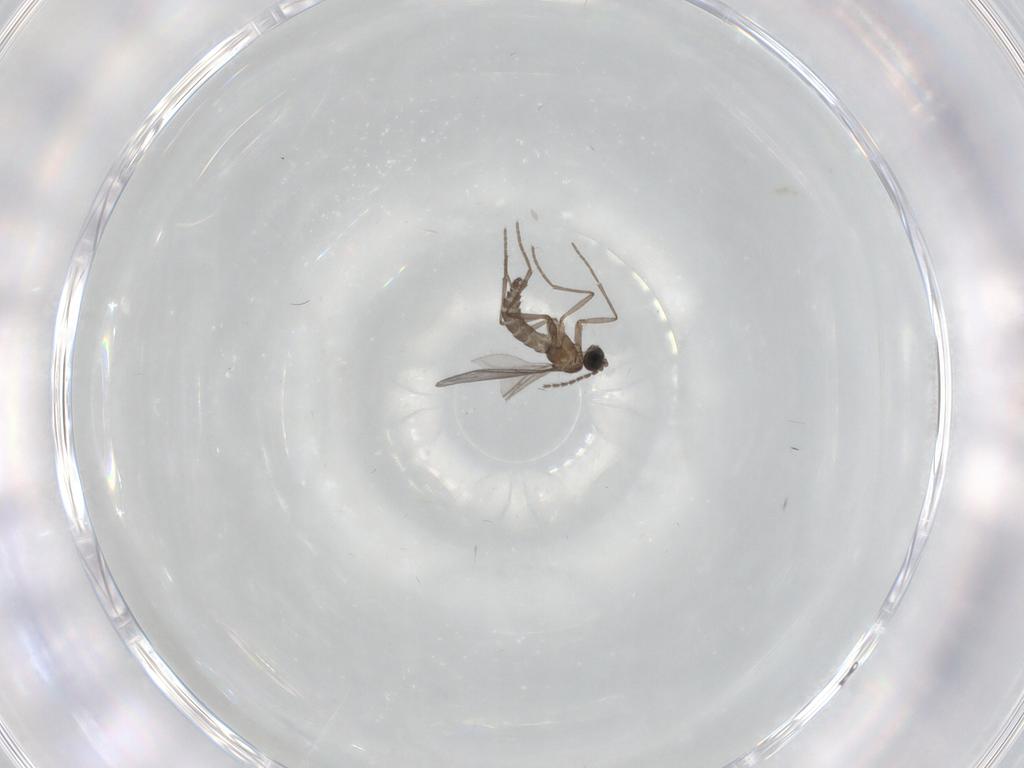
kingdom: Animalia
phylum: Arthropoda
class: Insecta
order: Diptera
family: Sciaridae
